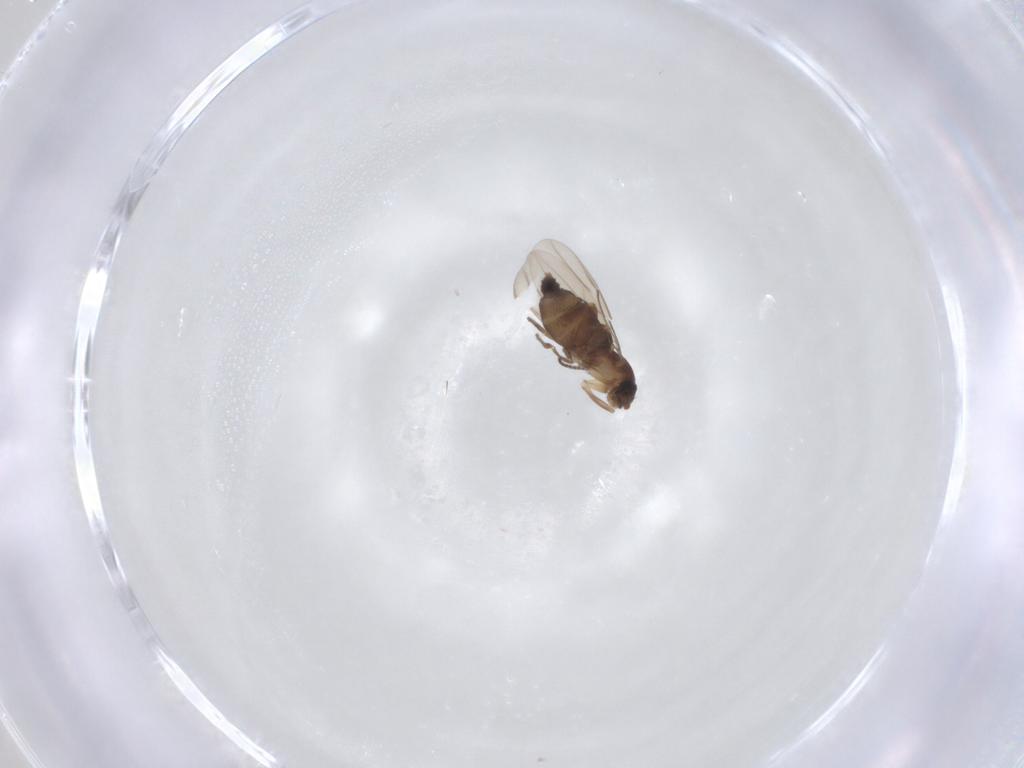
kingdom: Animalia
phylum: Arthropoda
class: Insecta
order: Diptera
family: Phoridae
